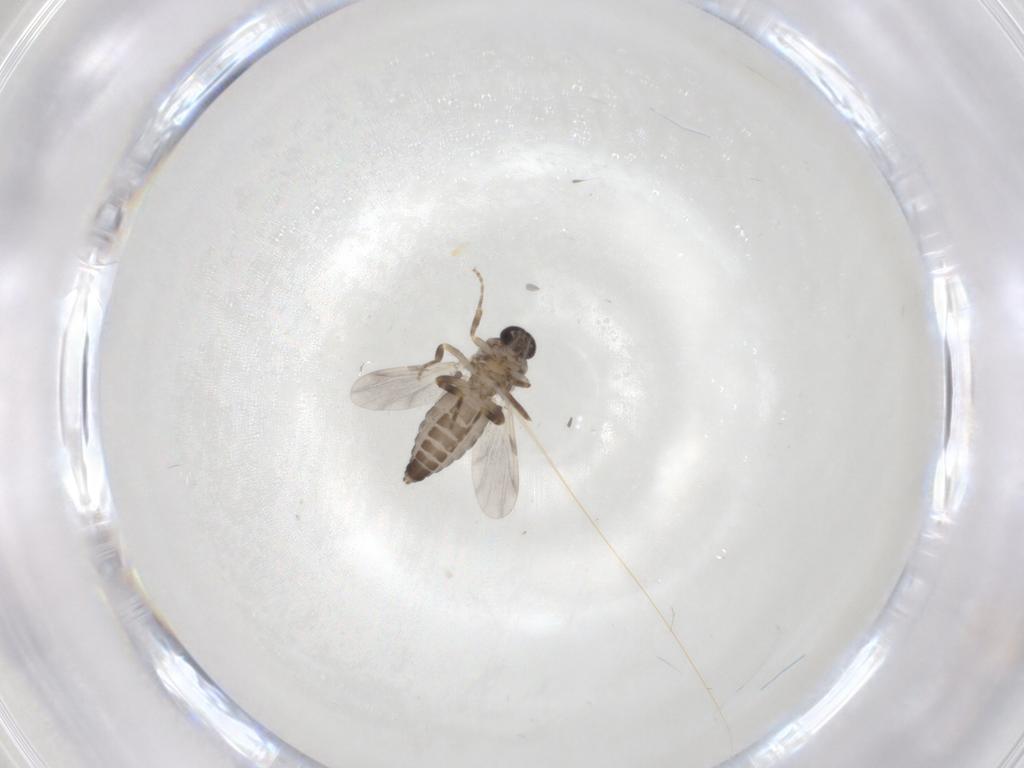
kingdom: Animalia
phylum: Arthropoda
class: Insecta
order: Diptera
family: Ceratopogonidae
